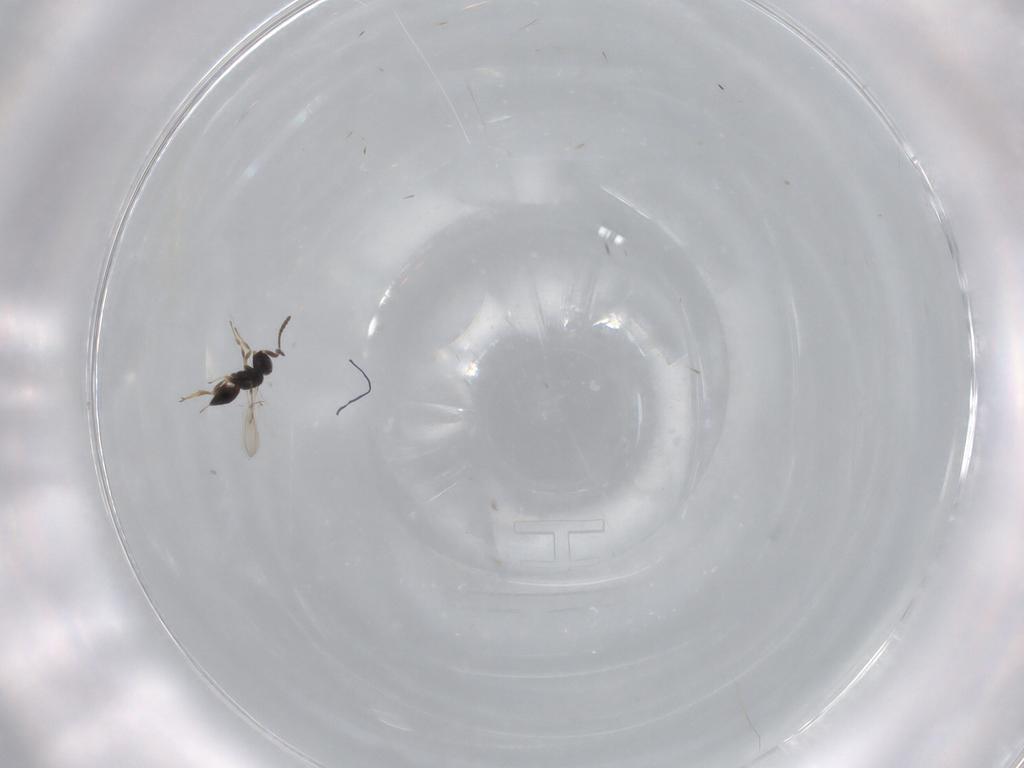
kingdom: Animalia
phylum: Arthropoda
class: Insecta
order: Hymenoptera
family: Scelionidae
